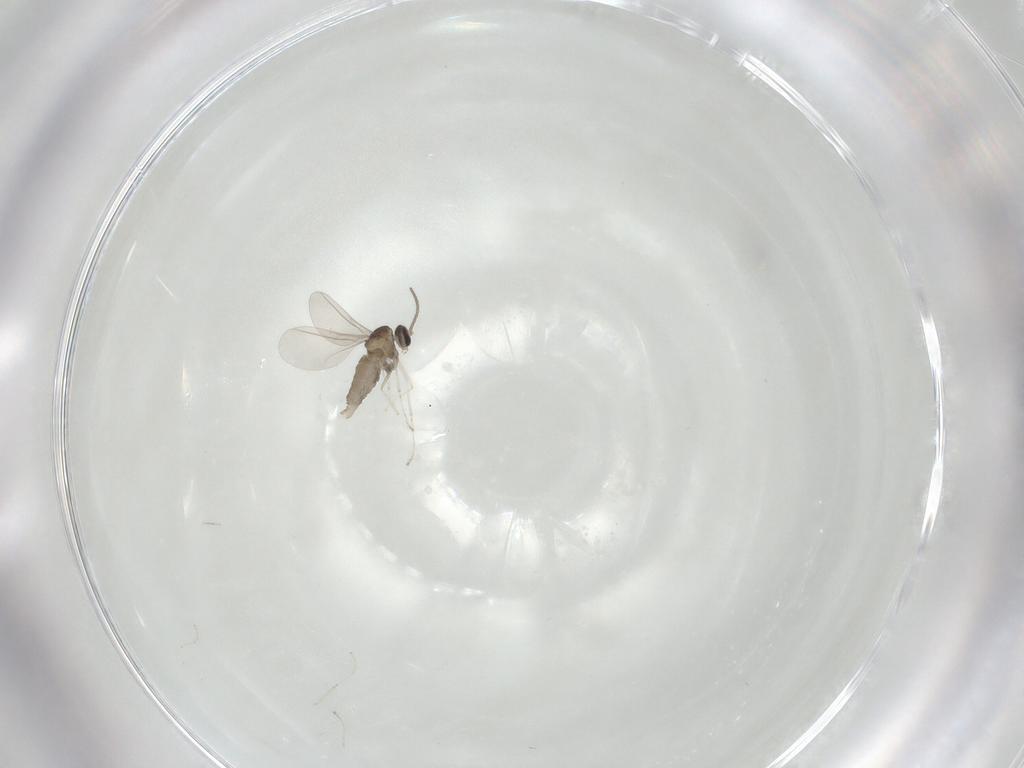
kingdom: Animalia
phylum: Arthropoda
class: Insecta
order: Diptera
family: Cecidomyiidae
